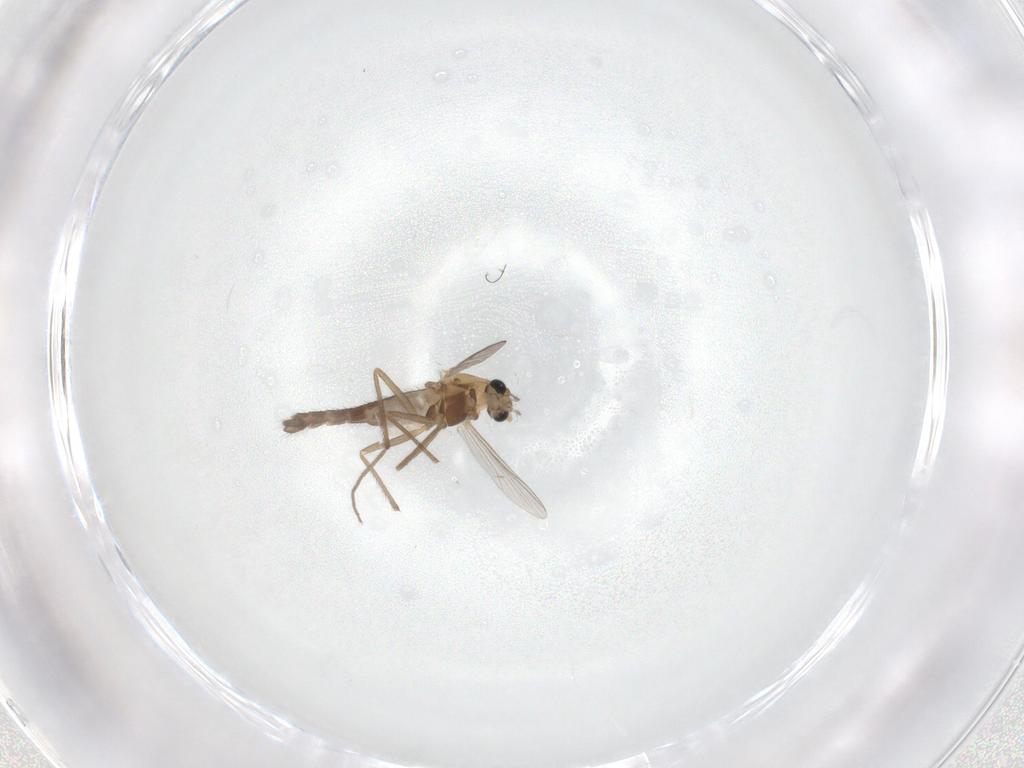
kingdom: Animalia
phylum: Arthropoda
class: Insecta
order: Diptera
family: Chironomidae
